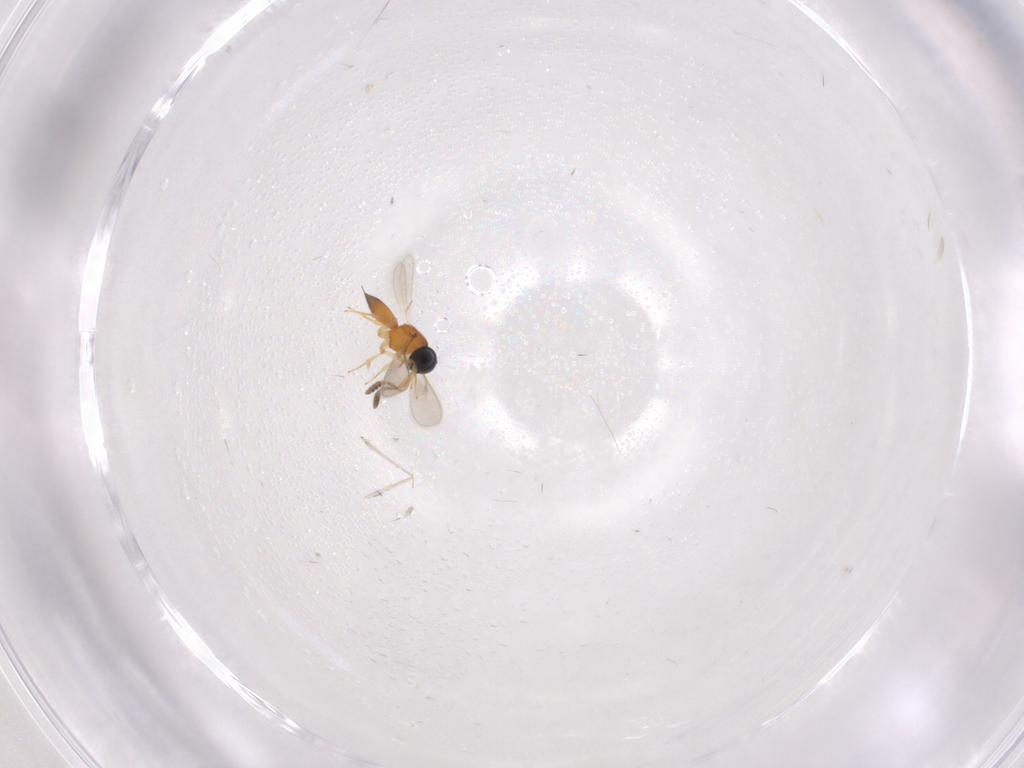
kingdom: Animalia
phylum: Arthropoda
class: Insecta
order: Hymenoptera
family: Scelionidae
